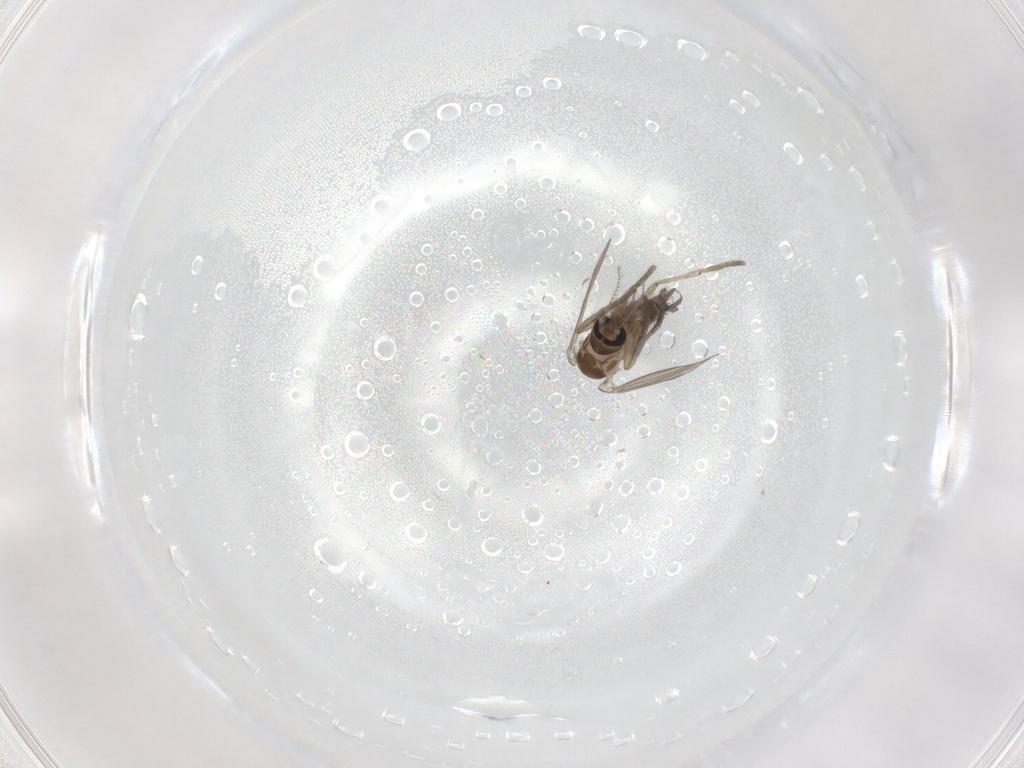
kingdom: Animalia
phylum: Arthropoda
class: Insecta
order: Diptera
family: Psychodidae
